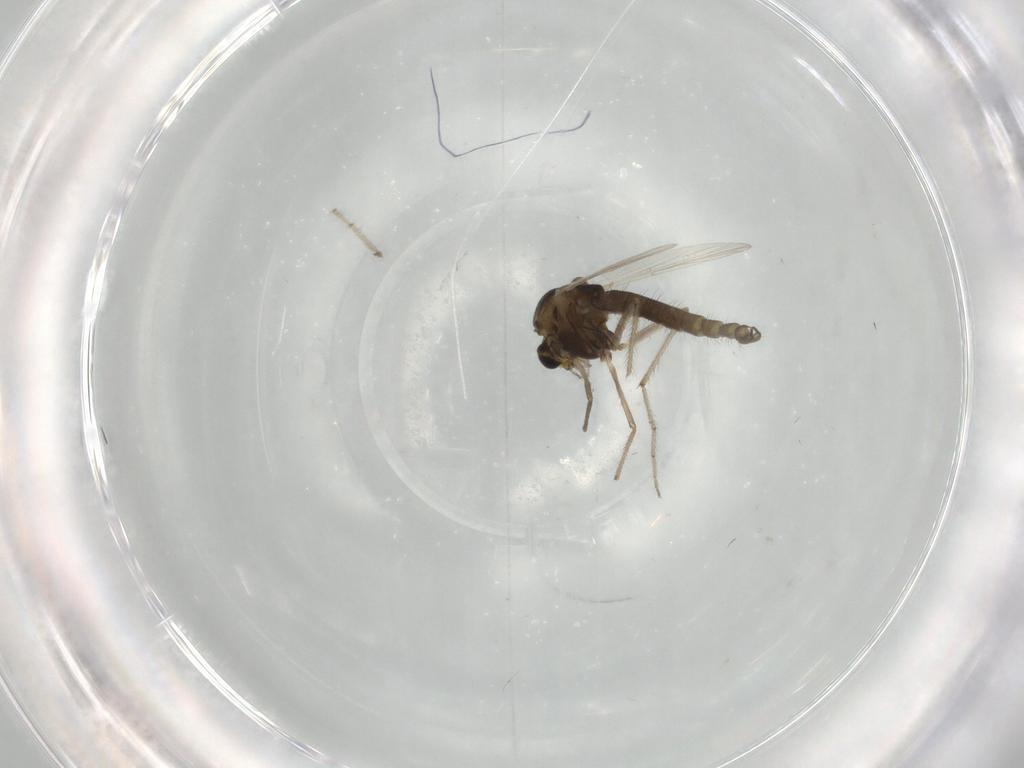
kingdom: Animalia
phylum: Arthropoda
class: Insecta
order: Diptera
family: Chironomidae
